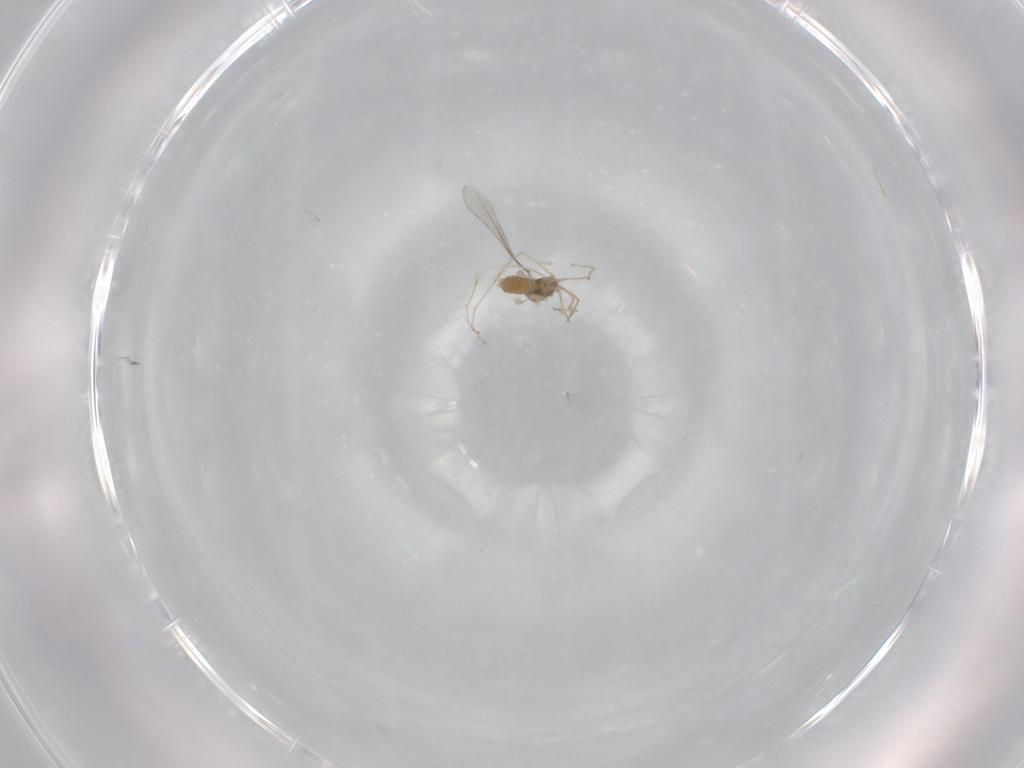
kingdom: Animalia
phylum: Arthropoda
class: Insecta
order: Diptera
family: Chironomidae
